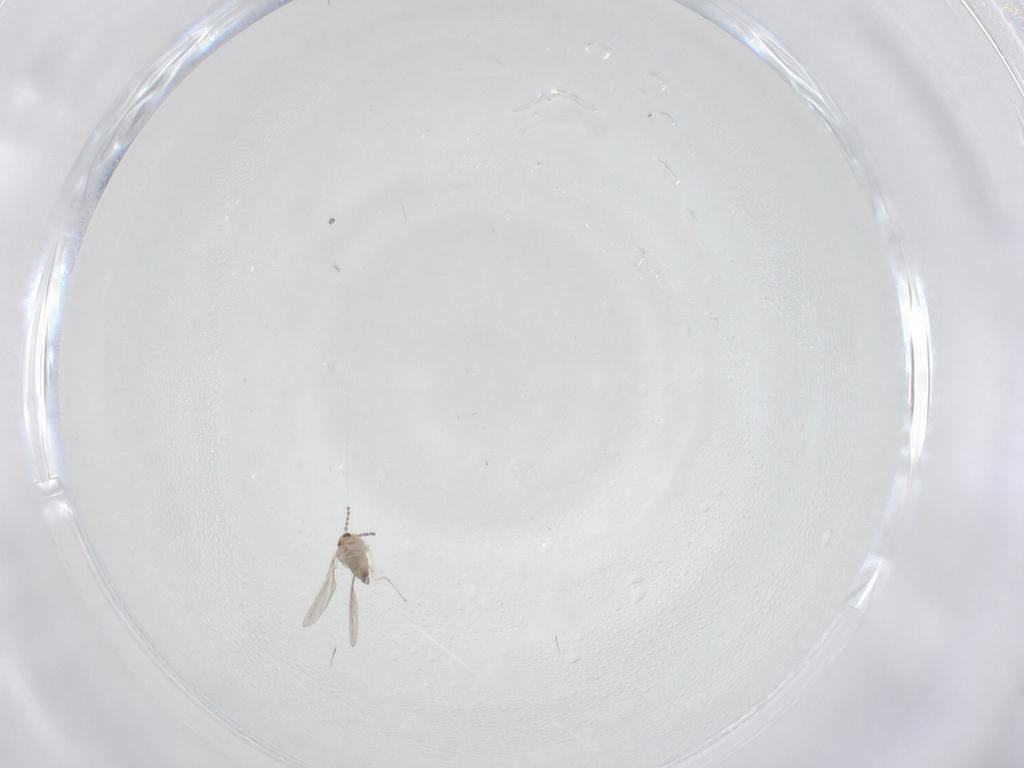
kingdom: Animalia
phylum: Arthropoda
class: Insecta
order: Diptera
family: Cecidomyiidae
